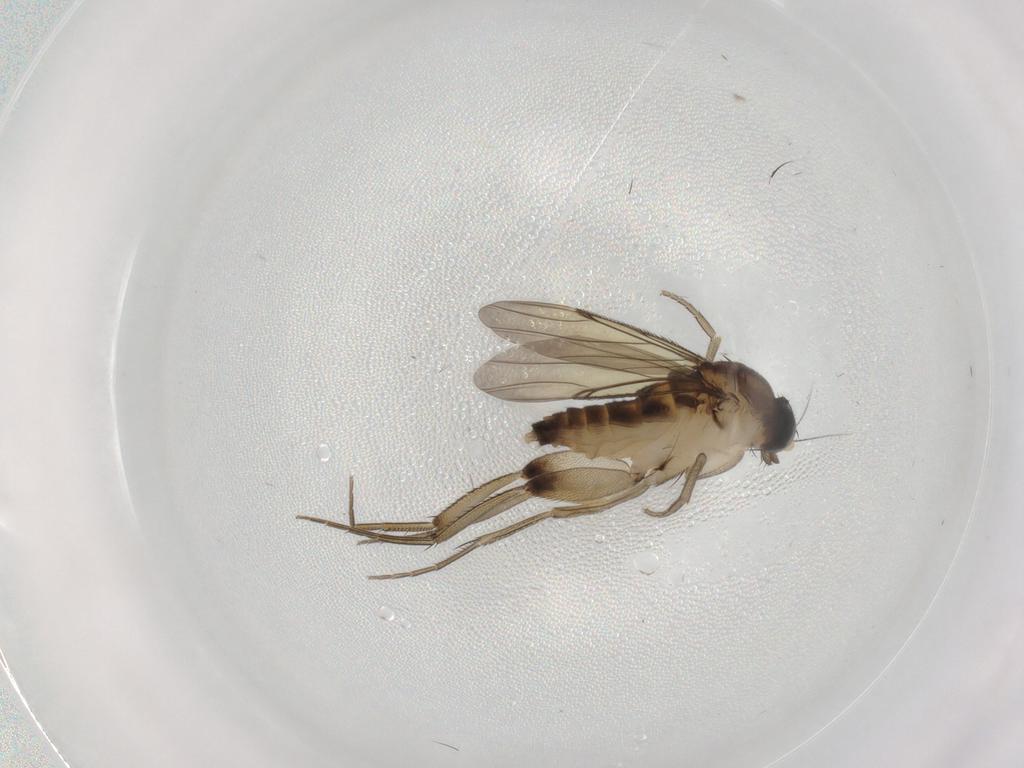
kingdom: Animalia
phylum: Arthropoda
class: Insecta
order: Diptera
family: Phoridae
